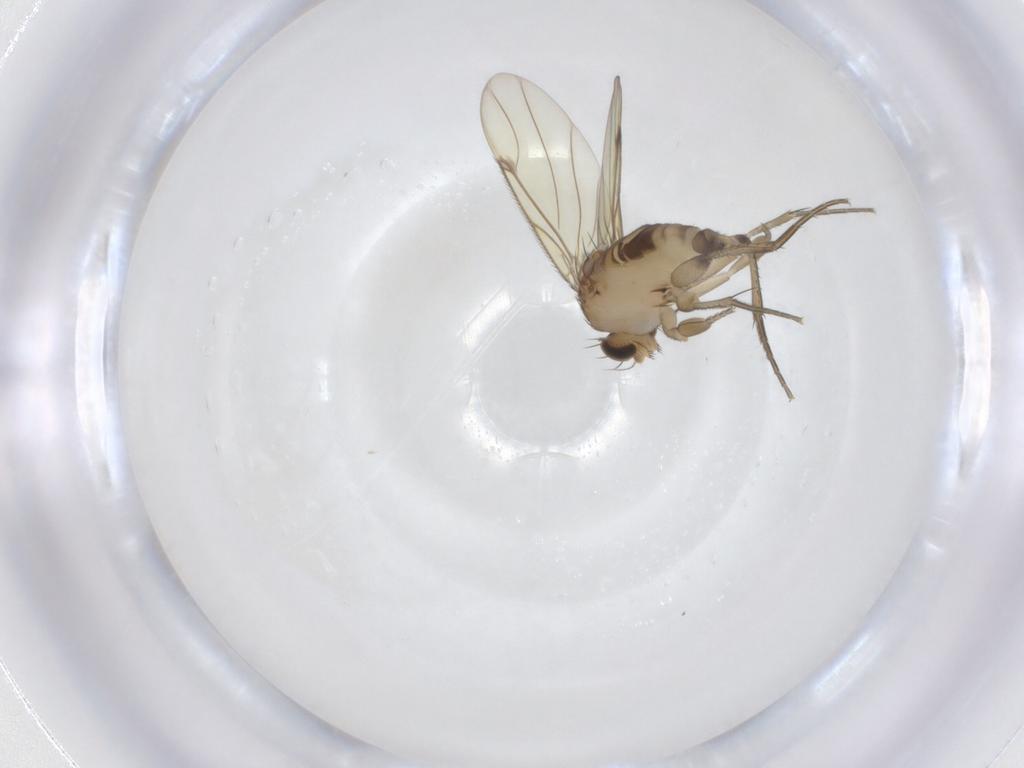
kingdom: Animalia
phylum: Arthropoda
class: Insecta
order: Diptera
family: Phoridae
